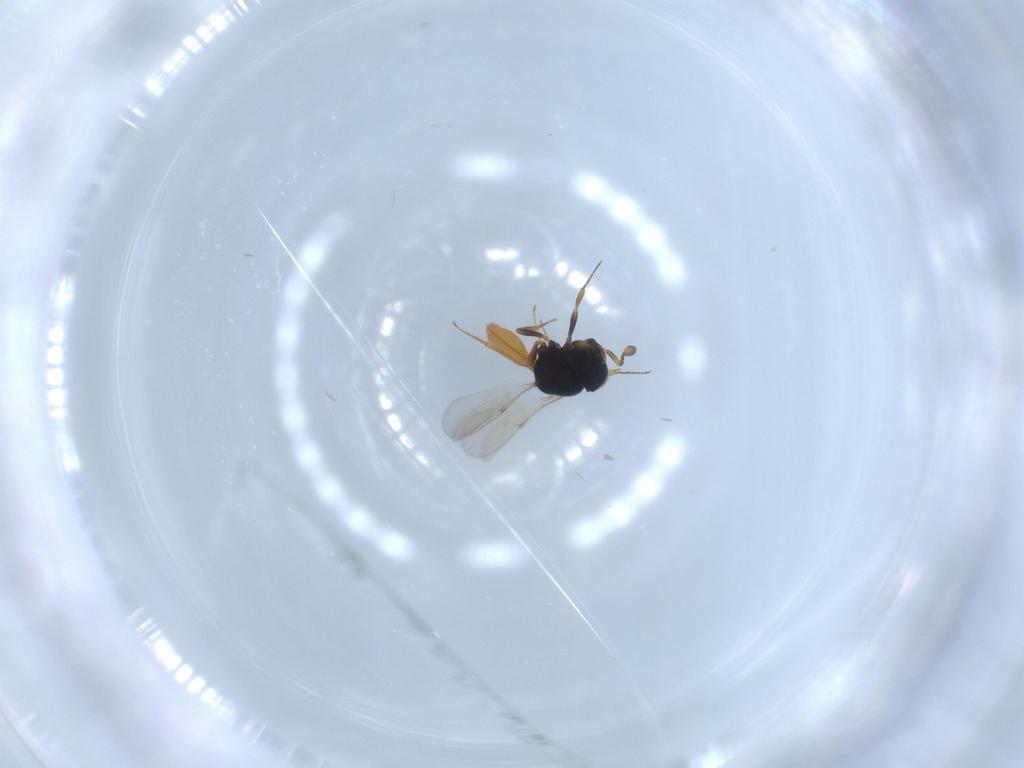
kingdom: Animalia
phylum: Arthropoda
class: Insecta
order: Hymenoptera
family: Scelionidae
